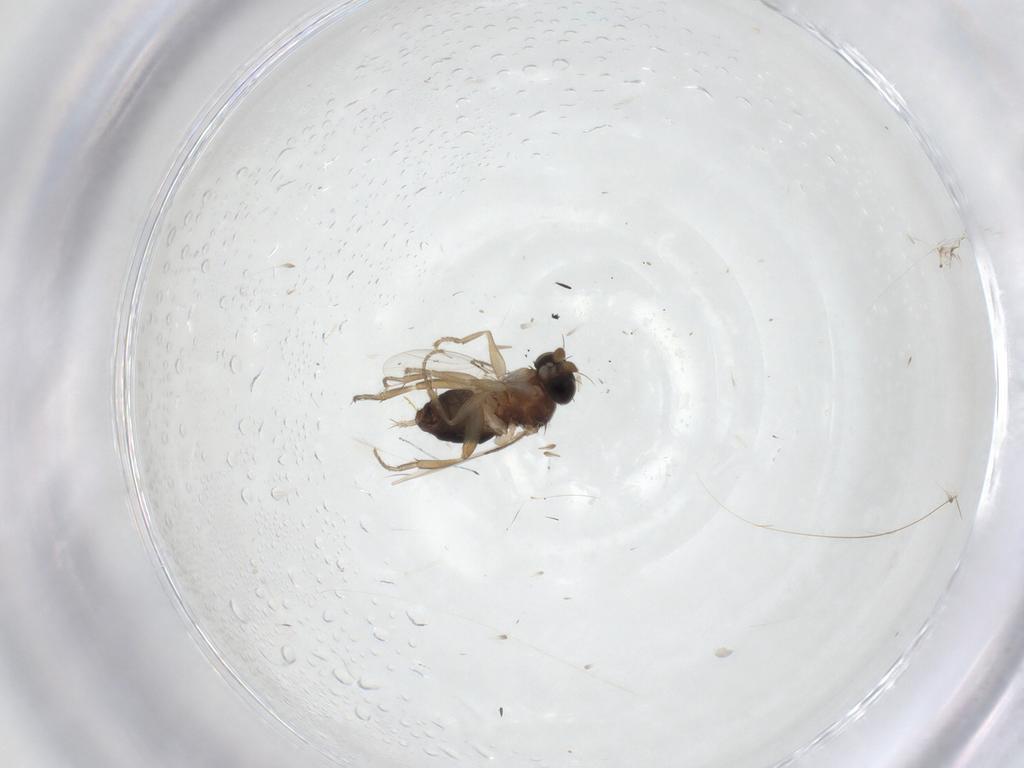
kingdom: Animalia
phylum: Arthropoda
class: Insecta
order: Diptera
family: Phoridae
